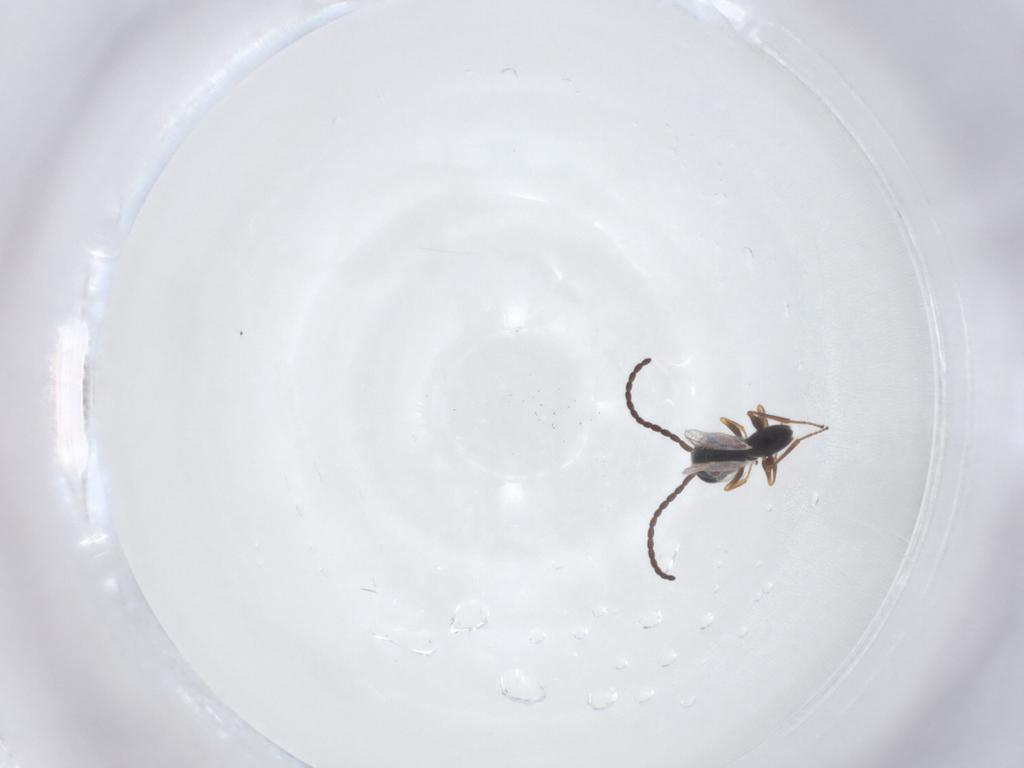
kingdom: Animalia
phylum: Arthropoda
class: Insecta
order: Hymenoptera
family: Figitidae
